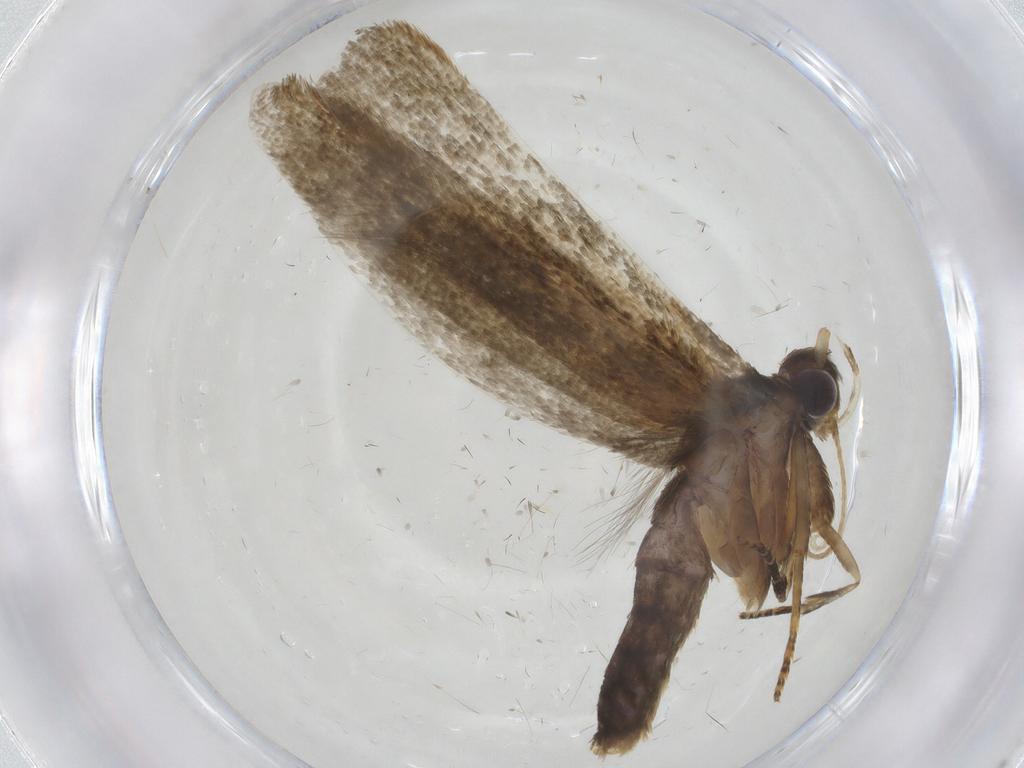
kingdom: Animalia
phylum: Arthropoda
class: Insecta
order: Lepidoptera
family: Blastobasidae
